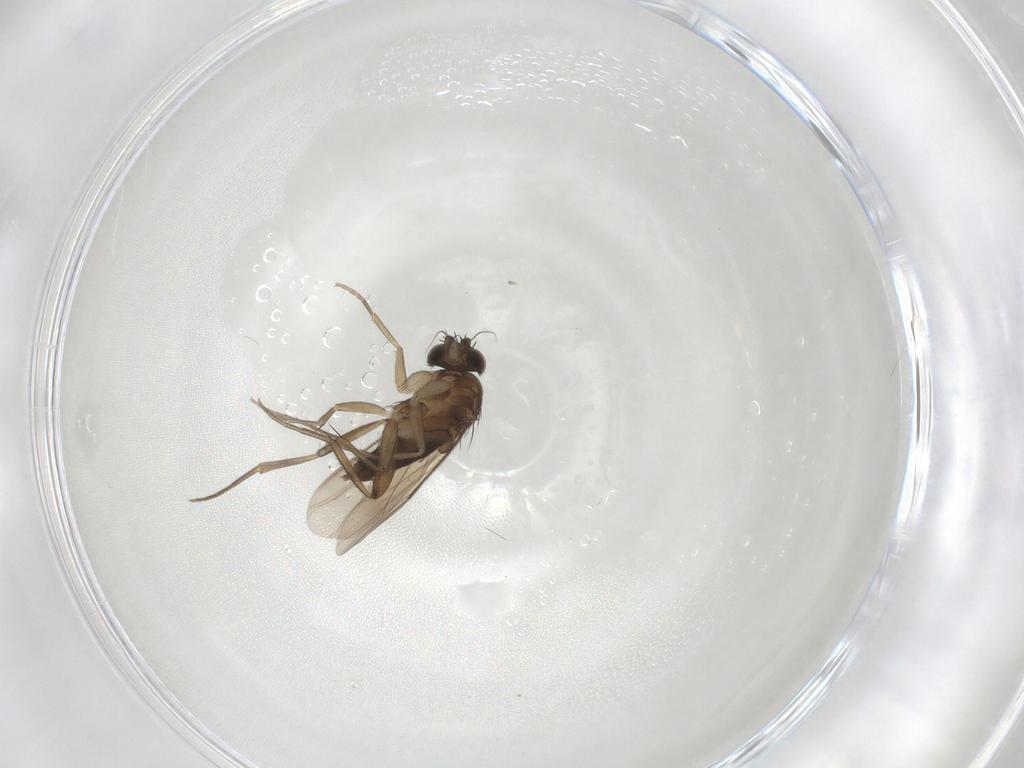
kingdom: Animalia
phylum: Arthropoda
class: Insecta
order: Diptera
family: Phoridae
